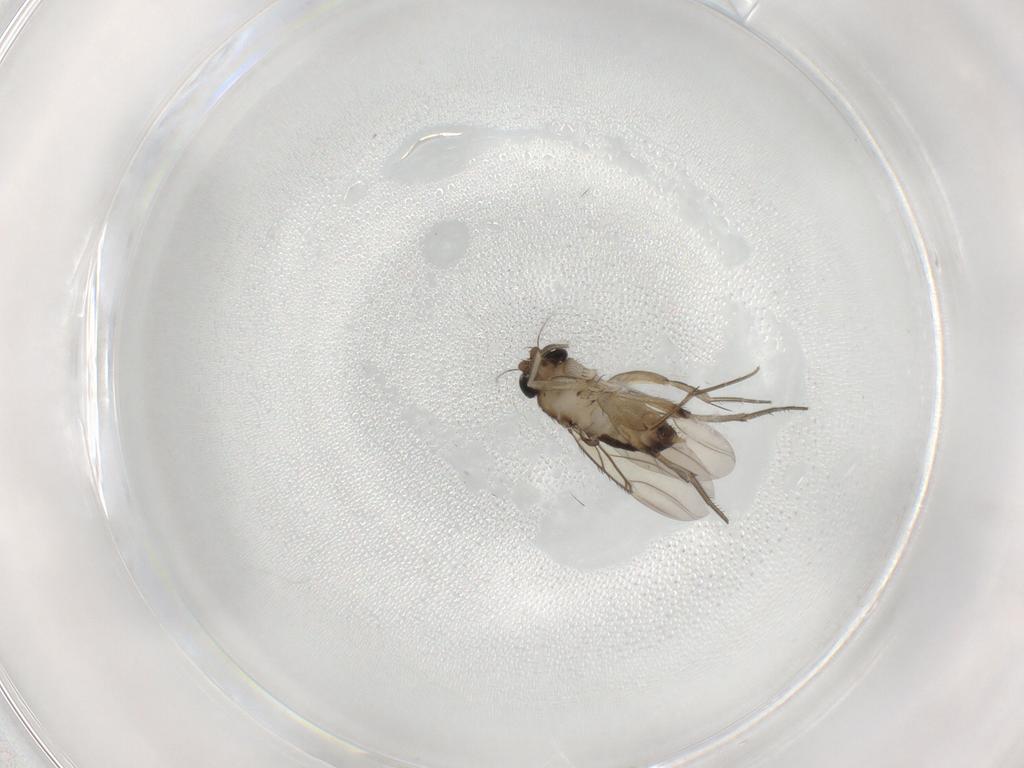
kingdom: Animalia
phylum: Arthropoda
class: Insecta
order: Diptera
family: Phoridae
